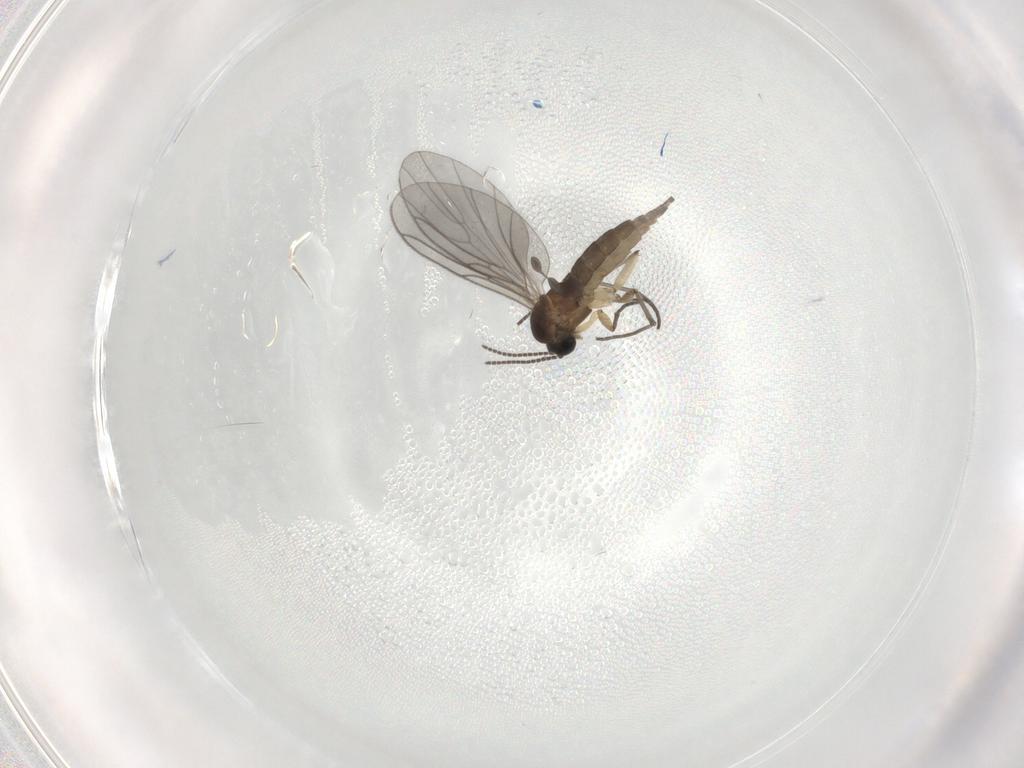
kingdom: Animalia
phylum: Arthropoda
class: Insecta
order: Diptera
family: Sciaridae
